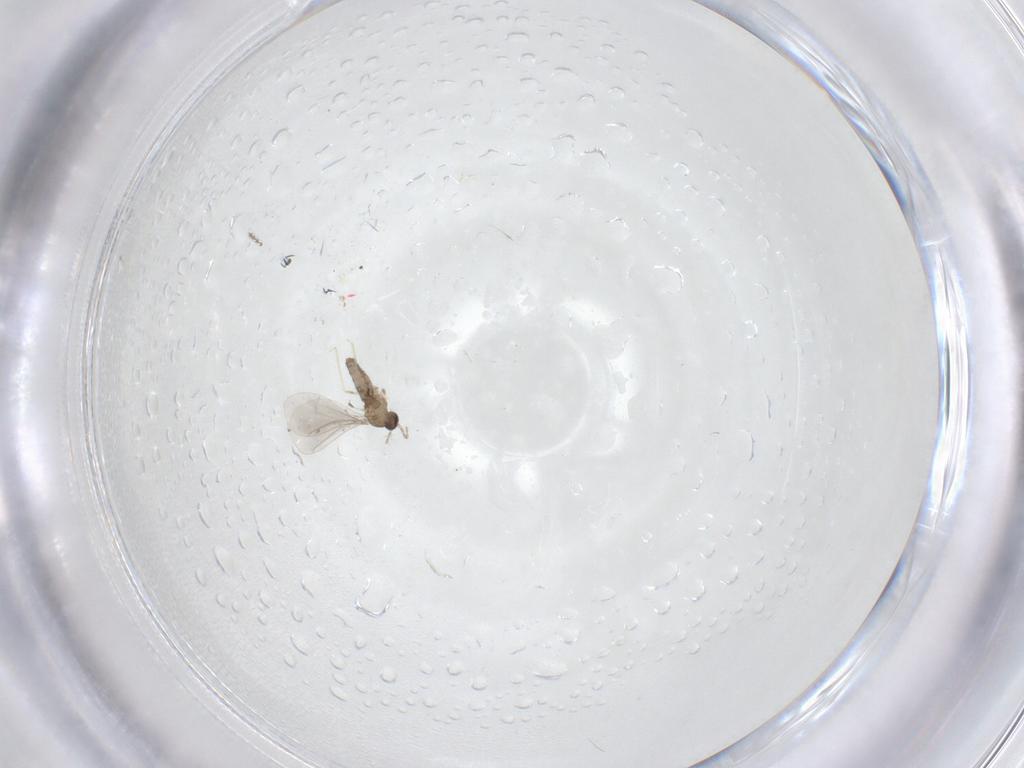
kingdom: Animalia
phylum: Arthropoda
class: Insecta
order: Diptera
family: Cecidomyiidae
